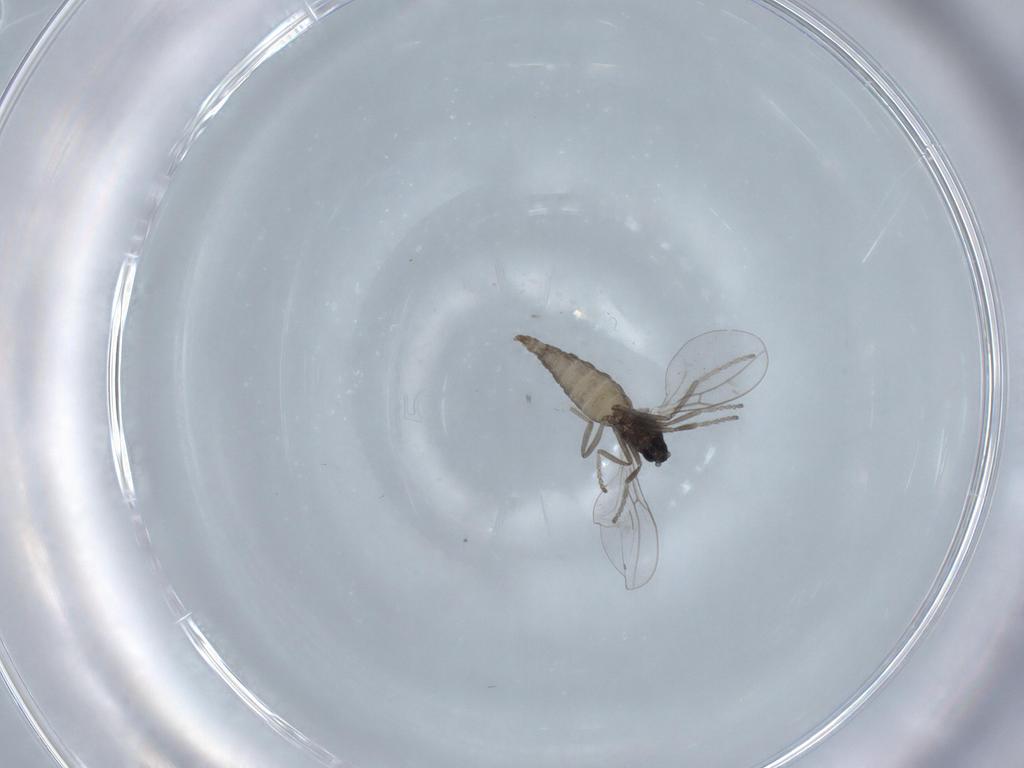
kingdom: Animalia
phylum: Arthropoda
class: Insecta
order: Diptera
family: Cecidomyiidae
